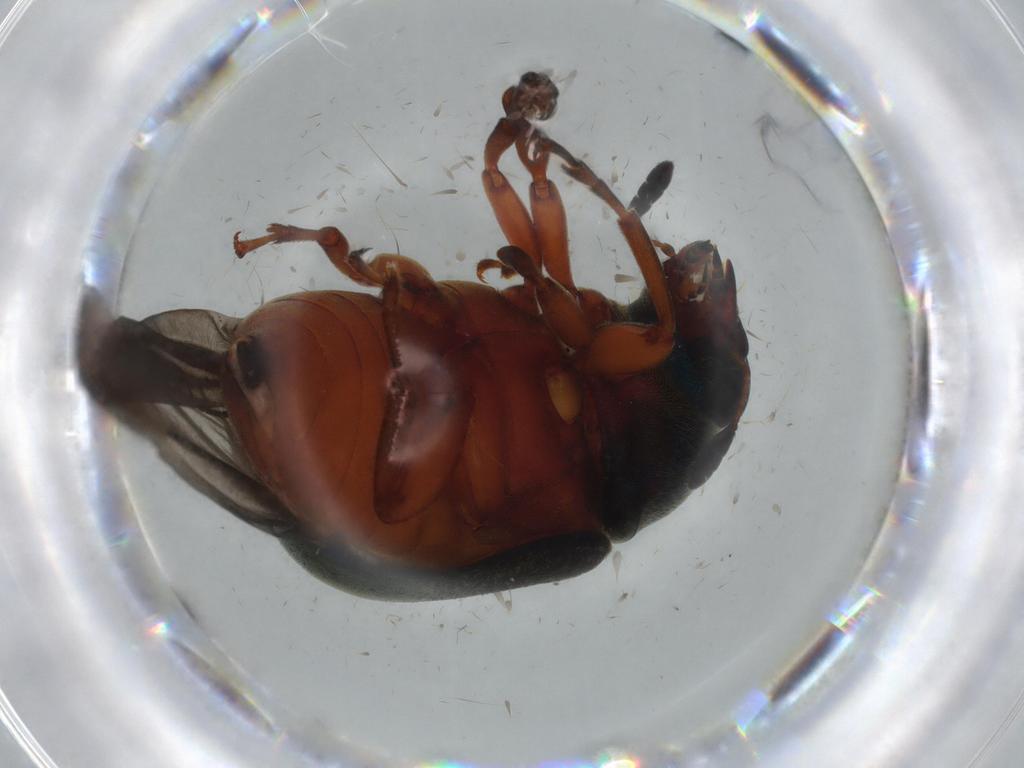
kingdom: Animalia
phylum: Arthropoda
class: Insecta
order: Coleoptera
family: Anthribidae
